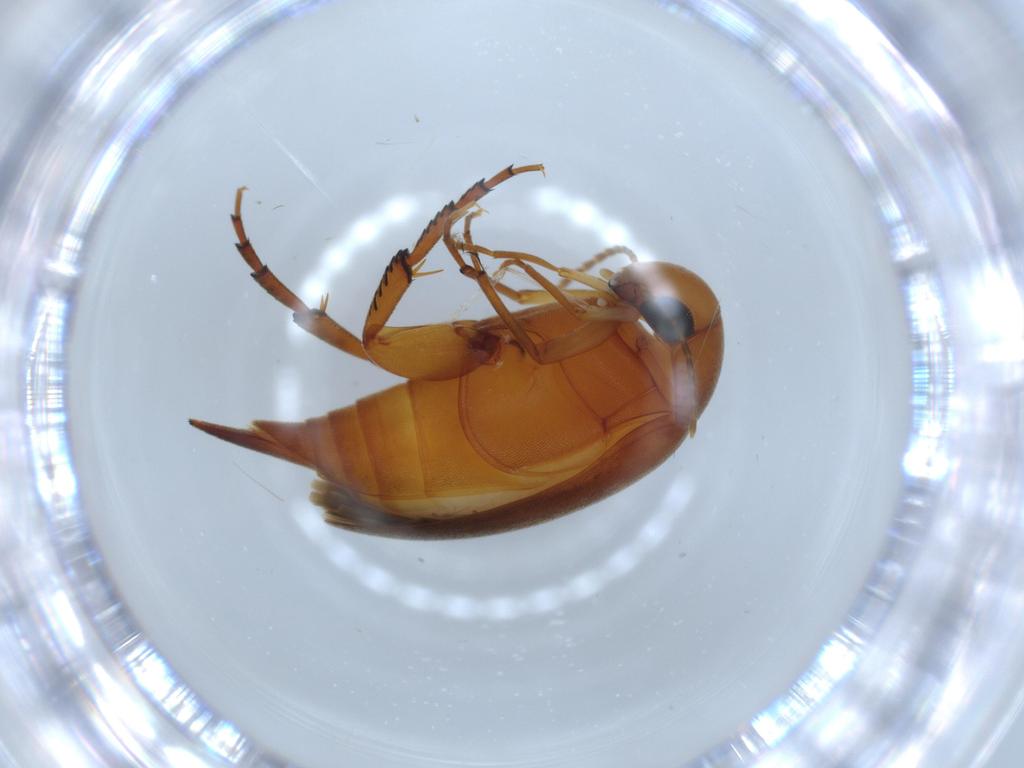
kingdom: Animalia
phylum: Arthropoda
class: Insecta
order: Coleoptera
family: Mordellidae
